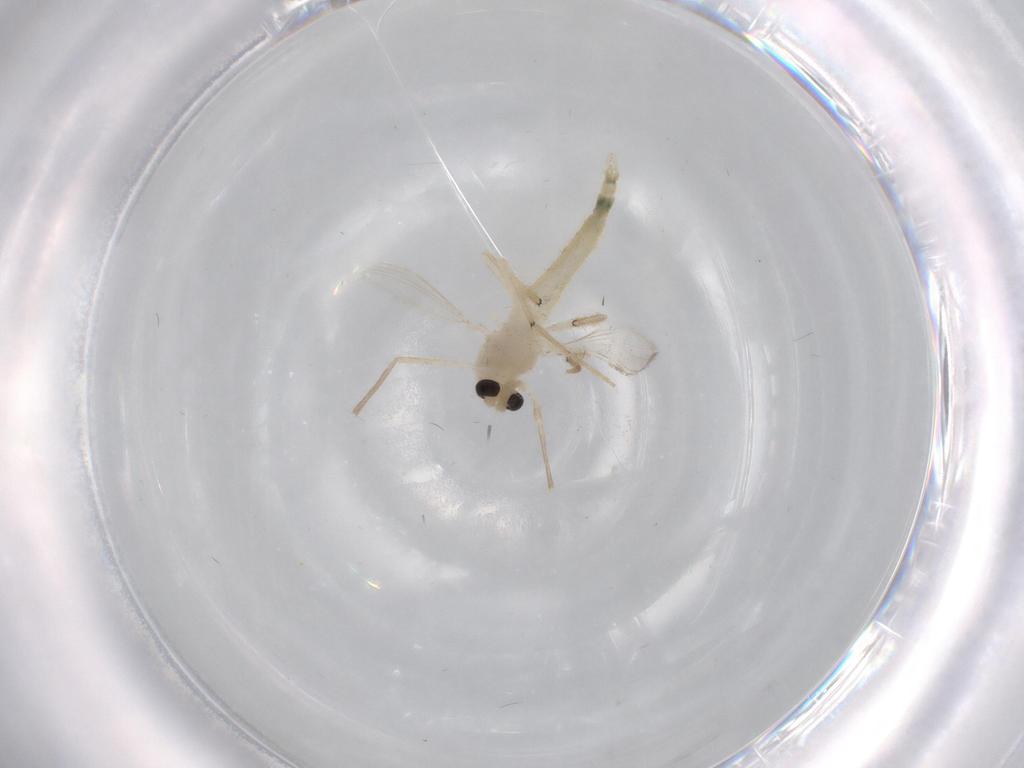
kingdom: Animalia
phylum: Arthropoda
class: Insecta
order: Diptera
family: Chironomidae
